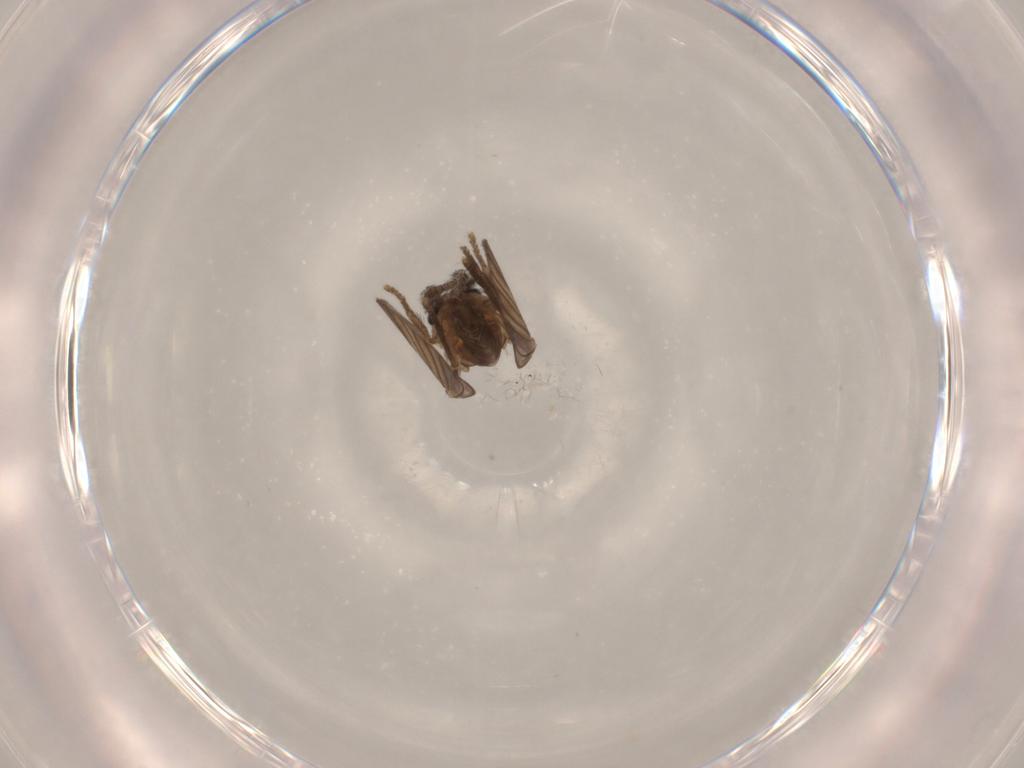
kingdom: Animalia
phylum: Arthropoda
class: Insecta
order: Diptera
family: Psychodidae
